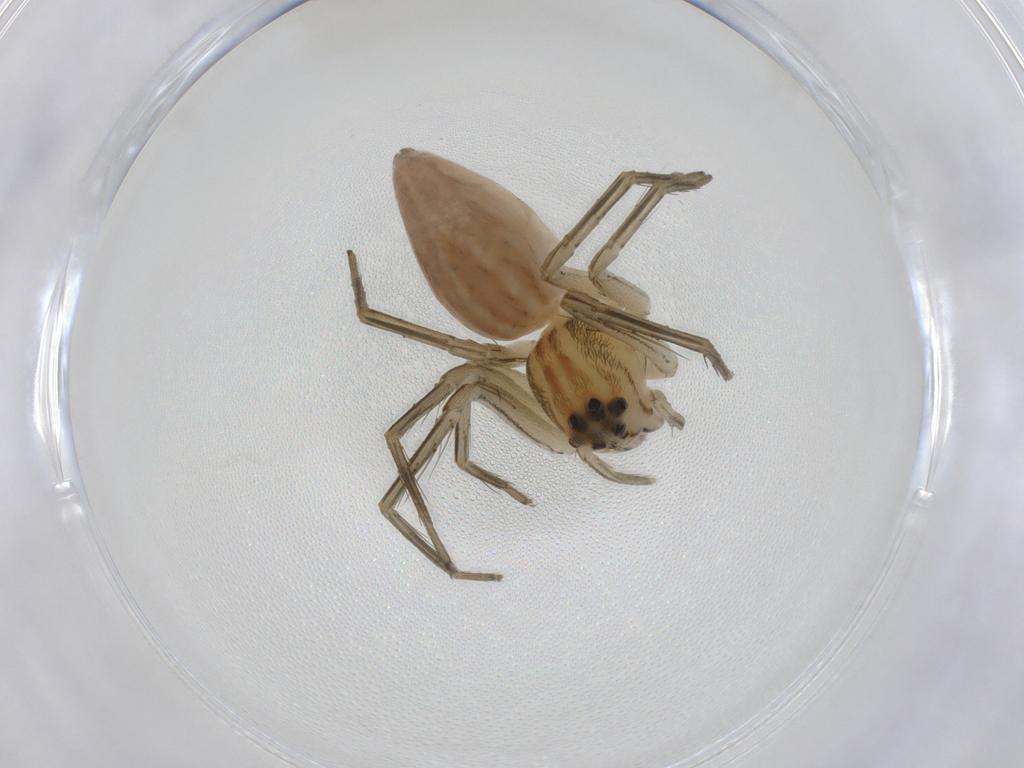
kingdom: Animalia
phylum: Arthropoda
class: Arachnida
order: Araneae
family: Oxyopidae
